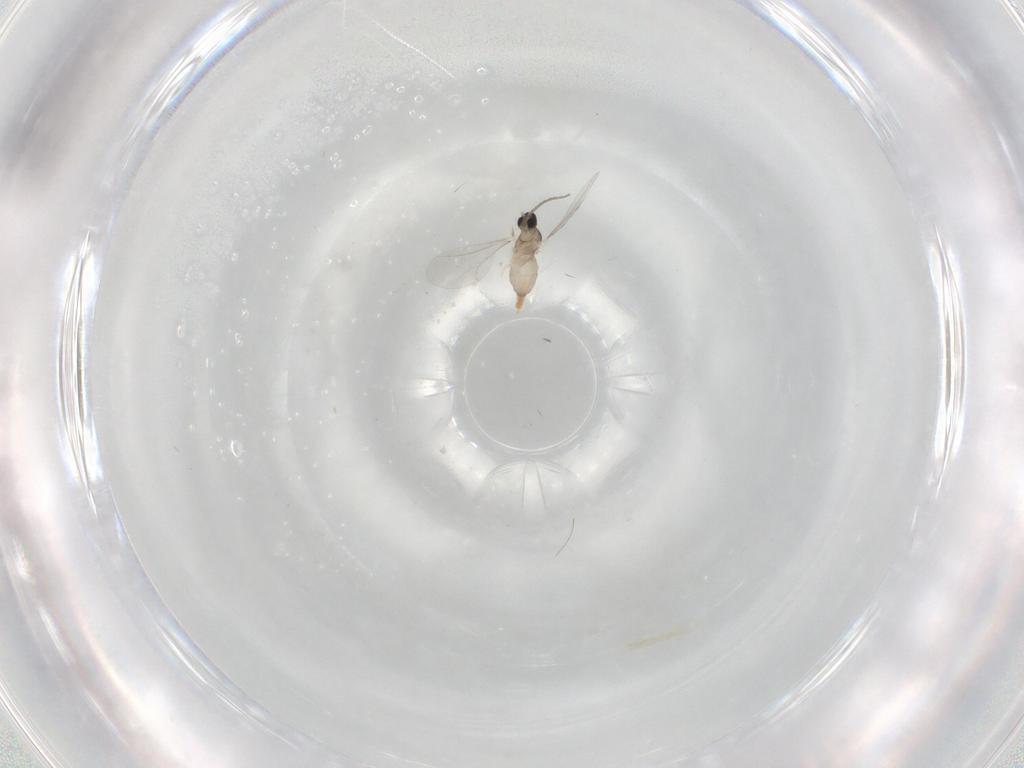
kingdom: Animalia
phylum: Arthropoda
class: Insecta
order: Diptera
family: Cecidomyiidae
